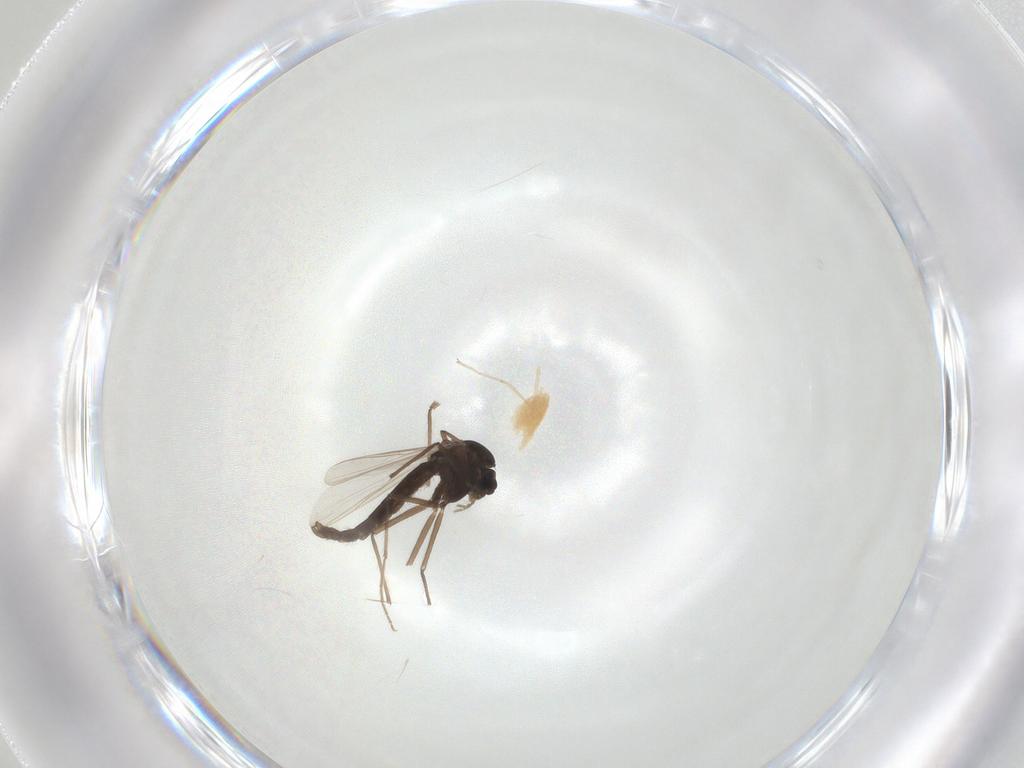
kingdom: Animalia
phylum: Arthropoda
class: Insecta
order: Diptera
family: Chironomidae
